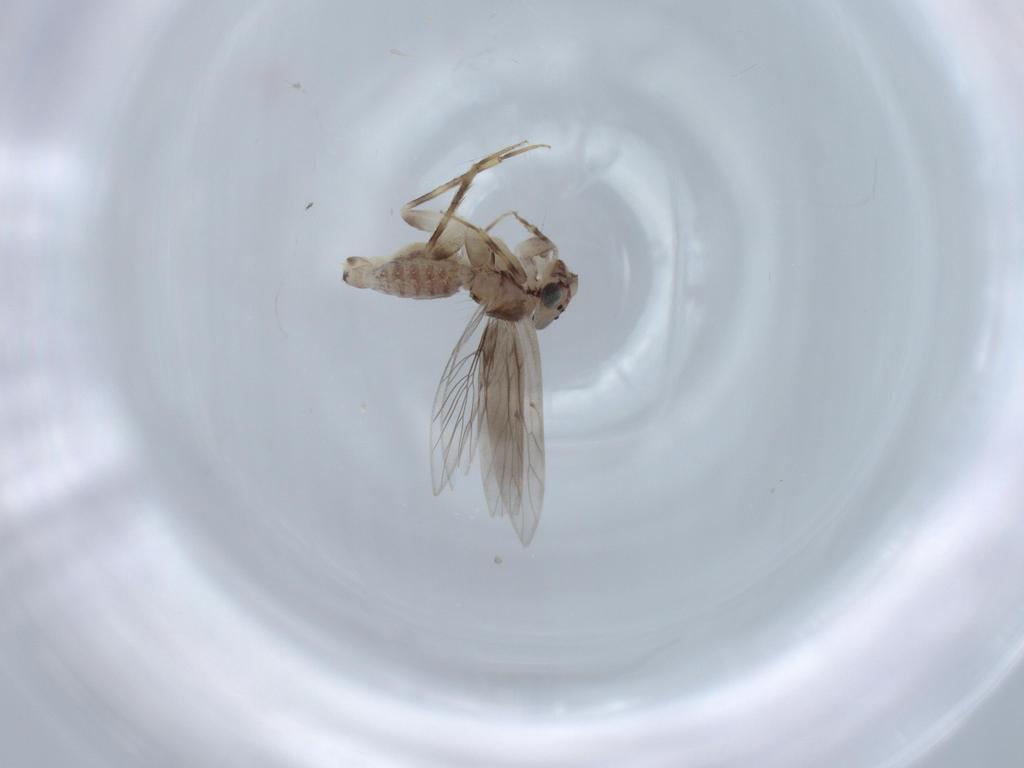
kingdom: Animalia
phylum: Arthropoda
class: Insecta
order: Psocodea
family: Lepidopsocidae
